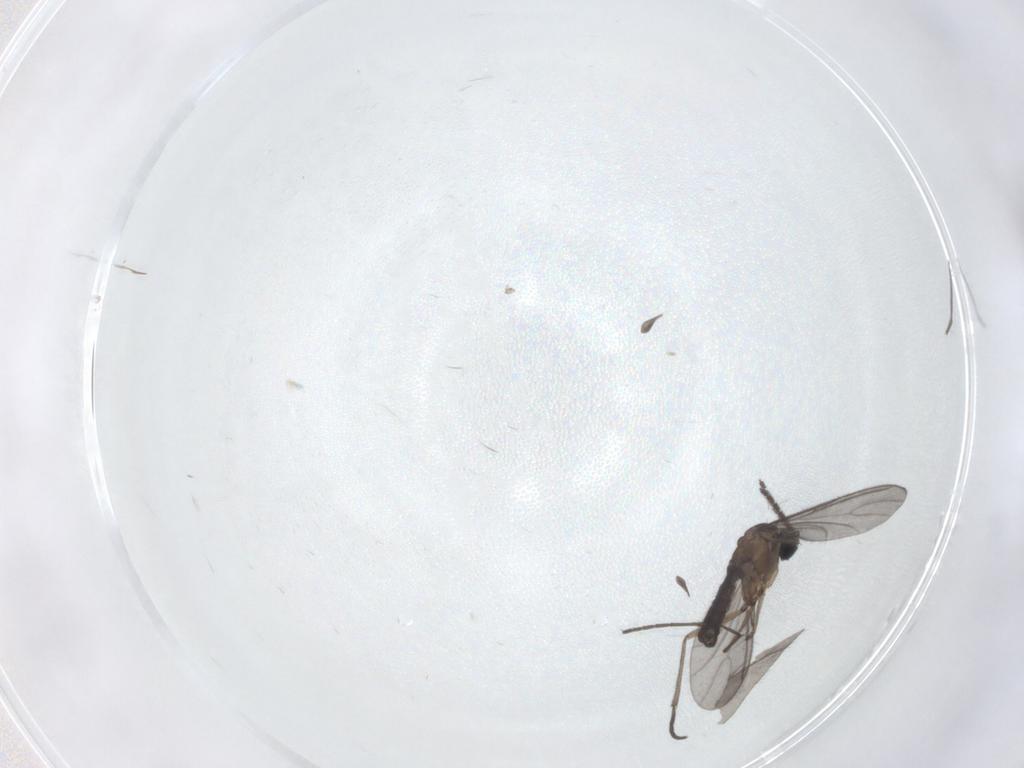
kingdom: Animalia
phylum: Arthropoda
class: Insecta
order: Diptera
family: Sciaridae
